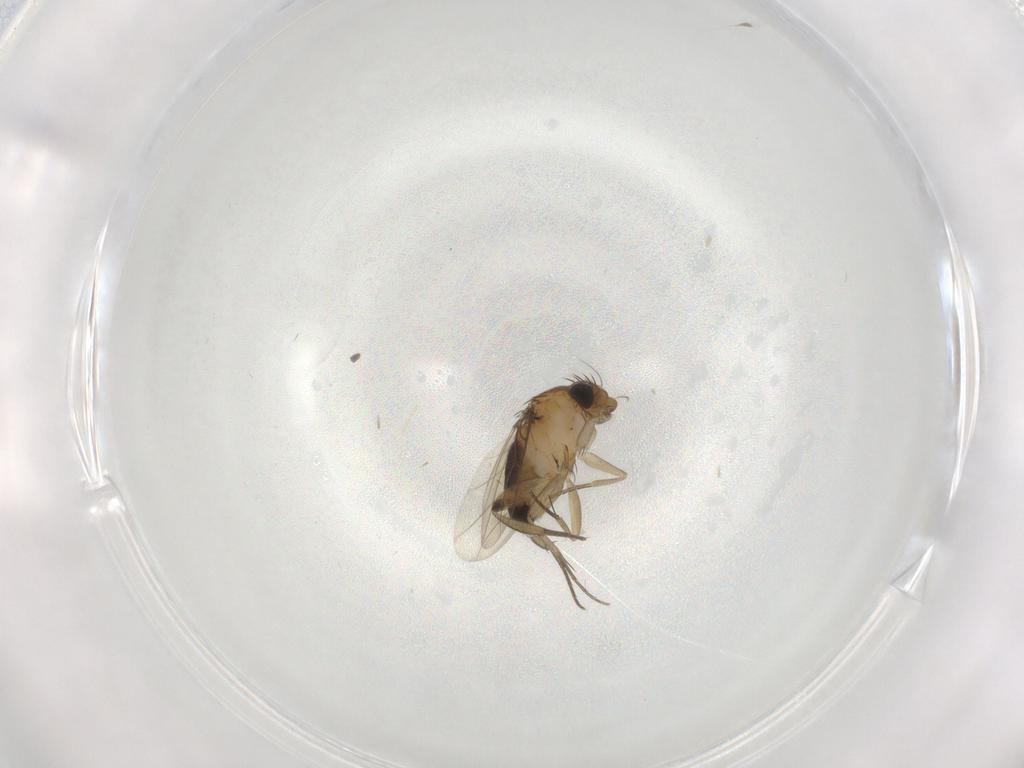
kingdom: Animalia
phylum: Arthropoda
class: Insecta
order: Diptera
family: Phoridae
